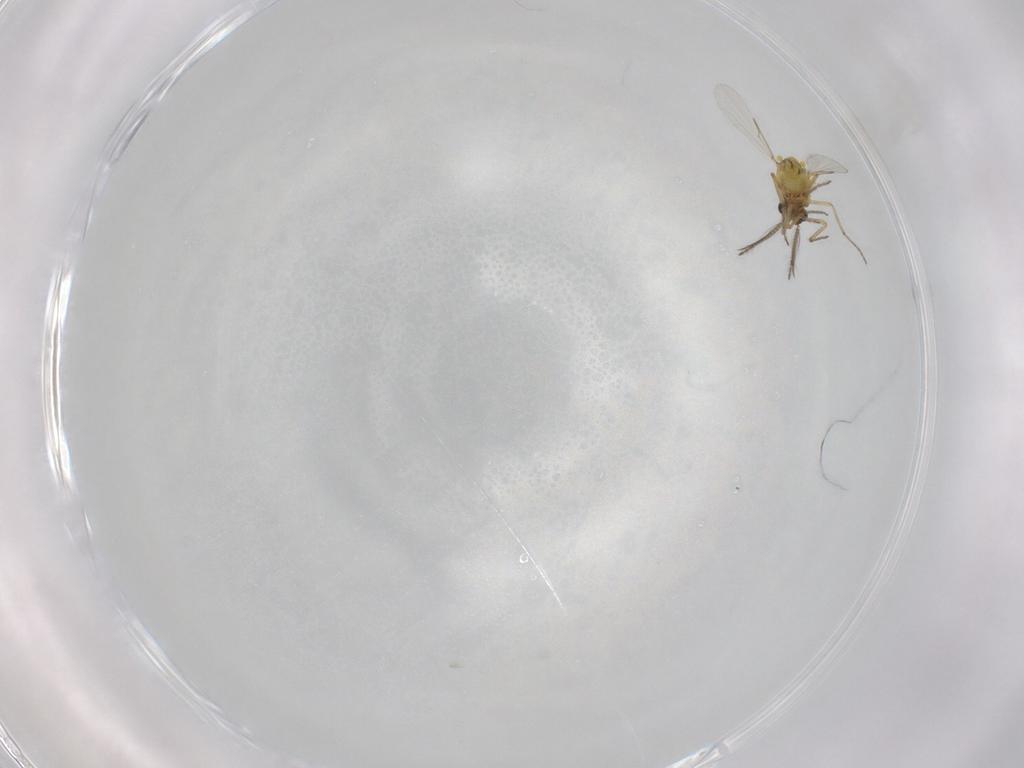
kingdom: Animalia
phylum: Arthropoda
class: Insecta
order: Diptera
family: Ceratopogonidae
